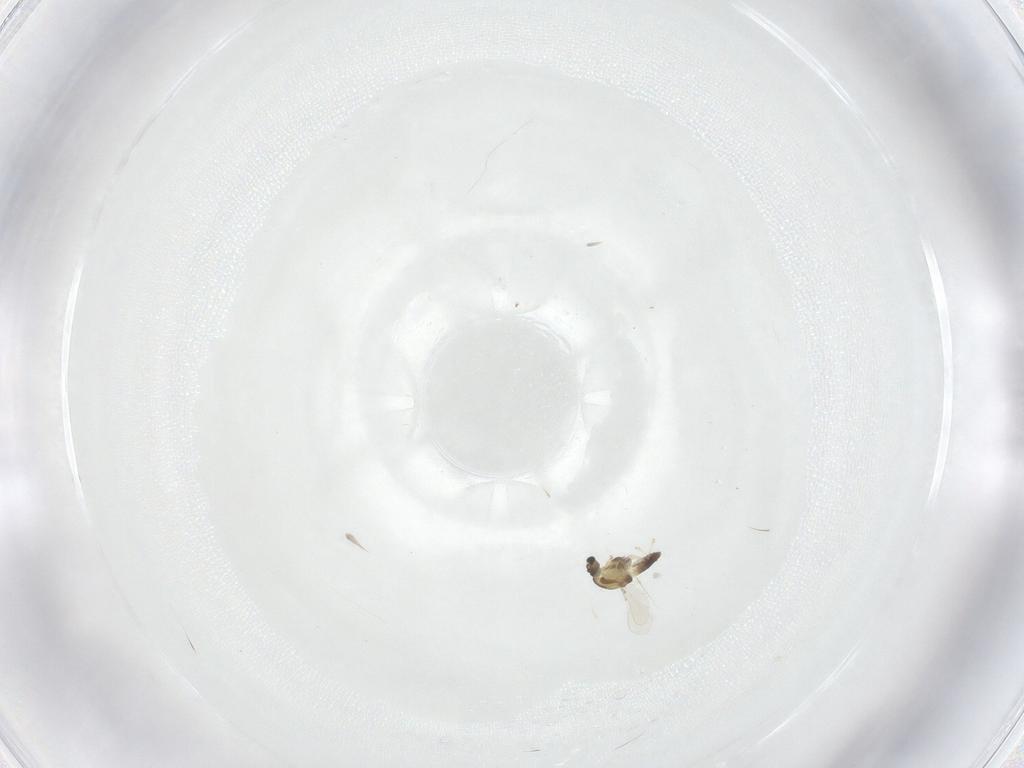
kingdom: Animalia
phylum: Arthropoda
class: Insecta
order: Diptera
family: Chironomidae
